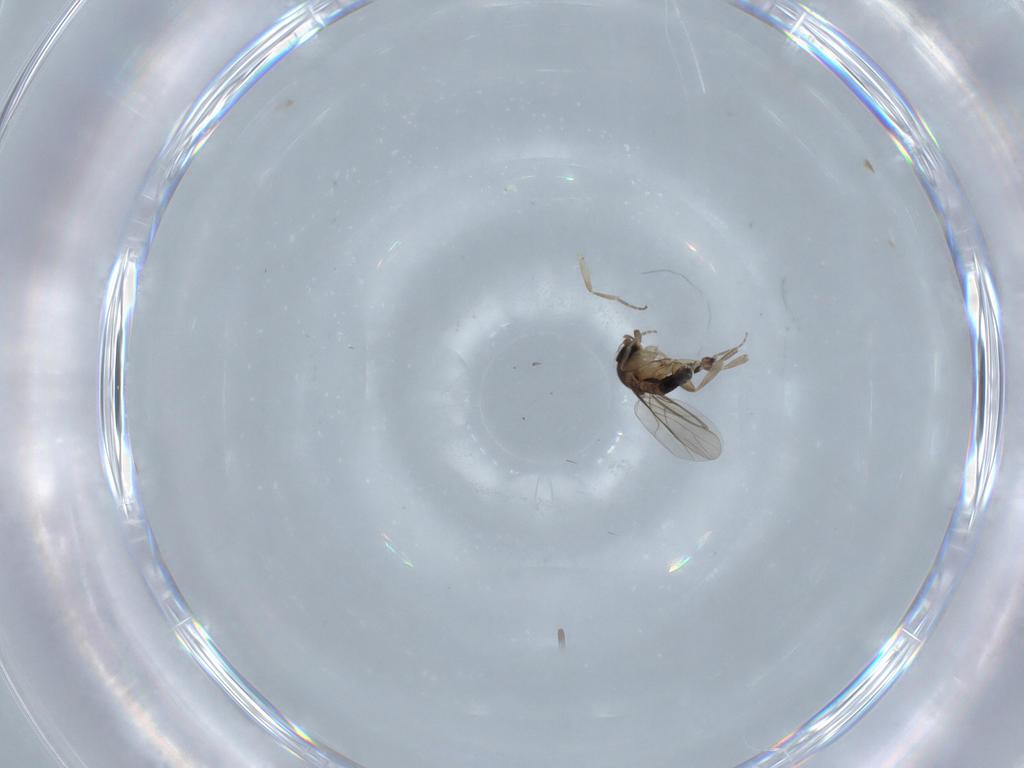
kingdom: Animalia
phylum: Arthropoda
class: Insecta
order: Diptera
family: Phoridae
